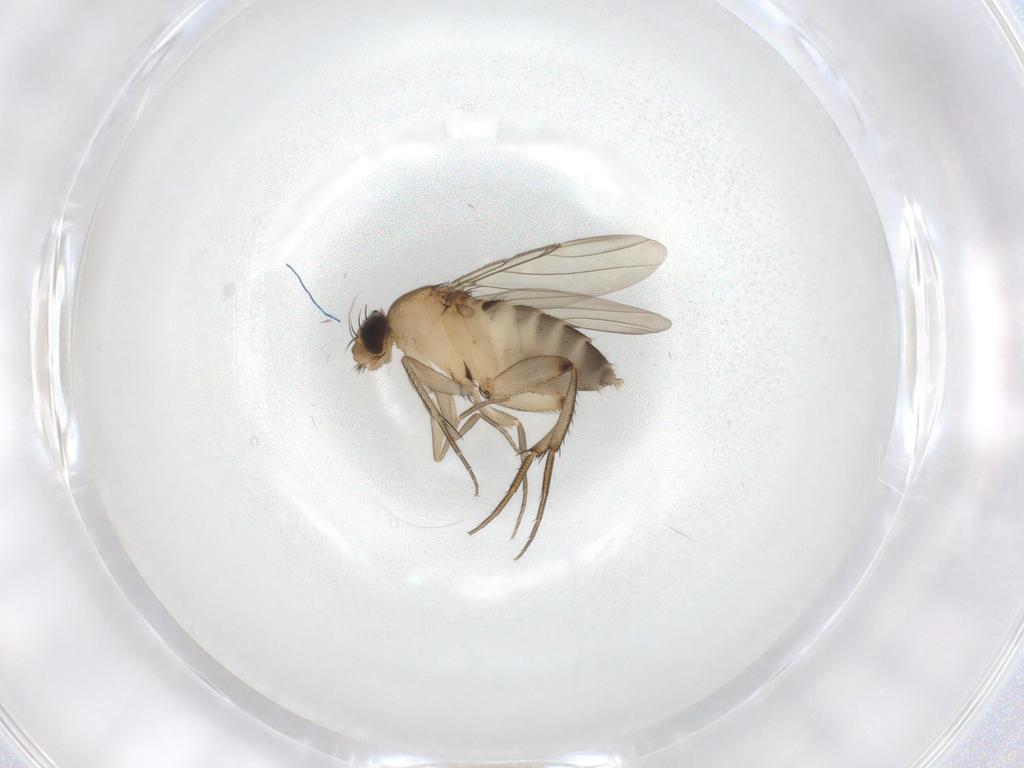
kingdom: Animalia
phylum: Arthropoda
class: Insecta
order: Diptera
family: Phoridae
